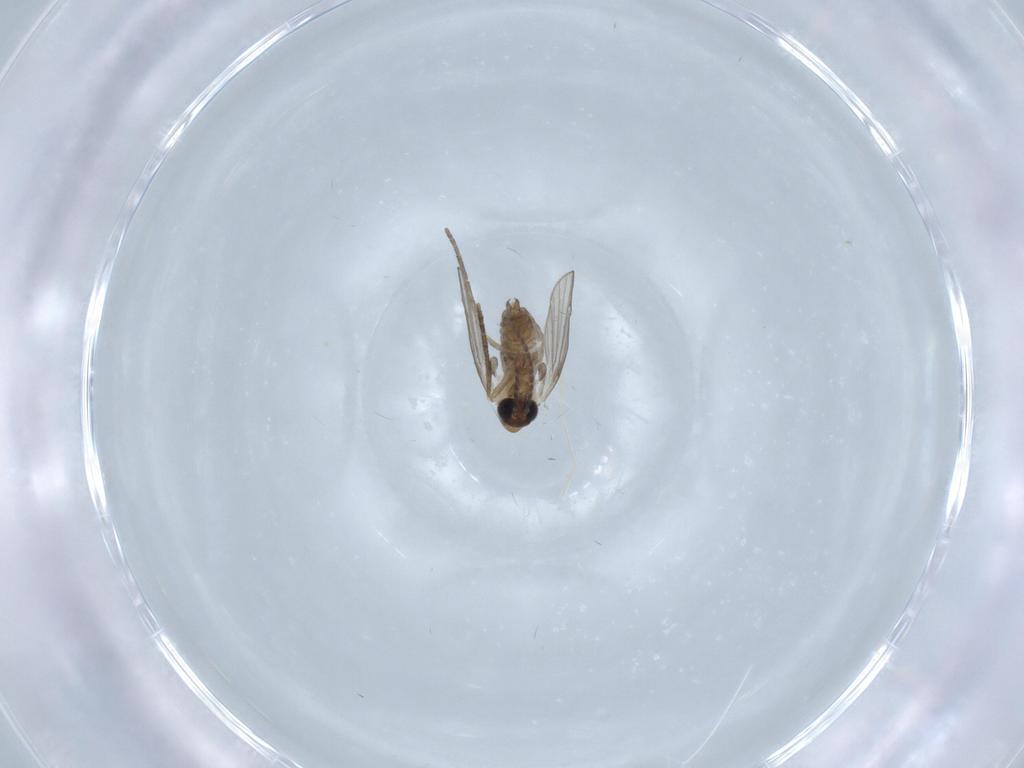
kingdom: Animalia
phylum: Arthropoda
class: Insecta
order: Diptera
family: Psychodidae
